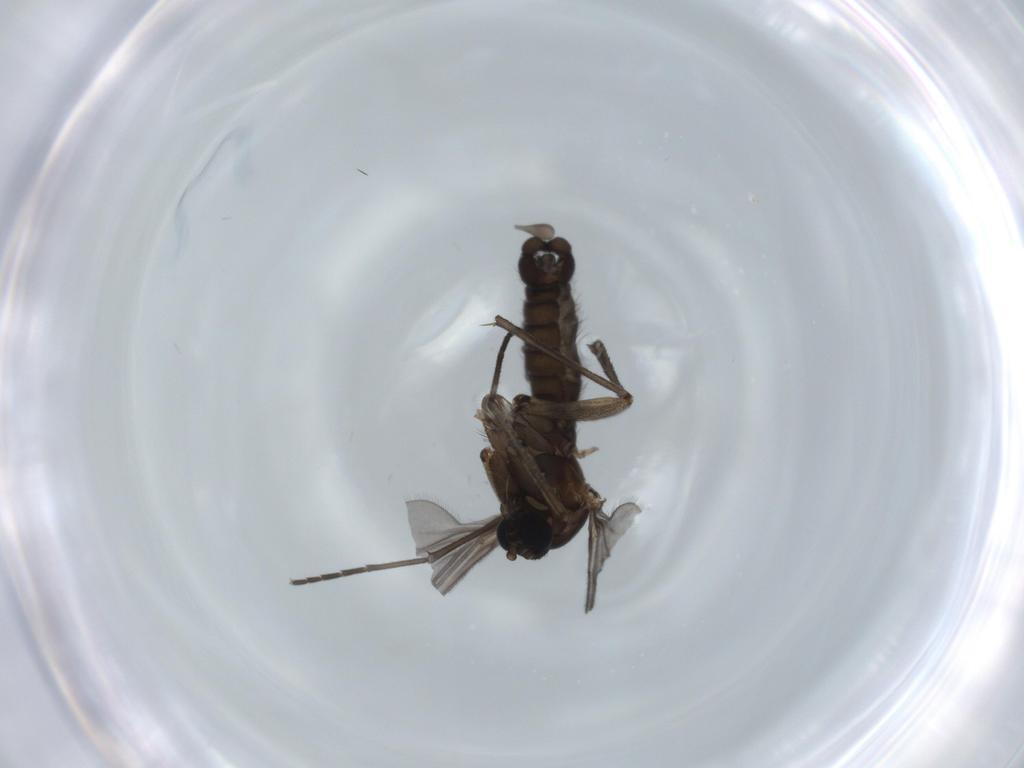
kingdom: Animalia
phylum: Arthropoda
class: Insecta
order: Diptera
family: Sciaridae
